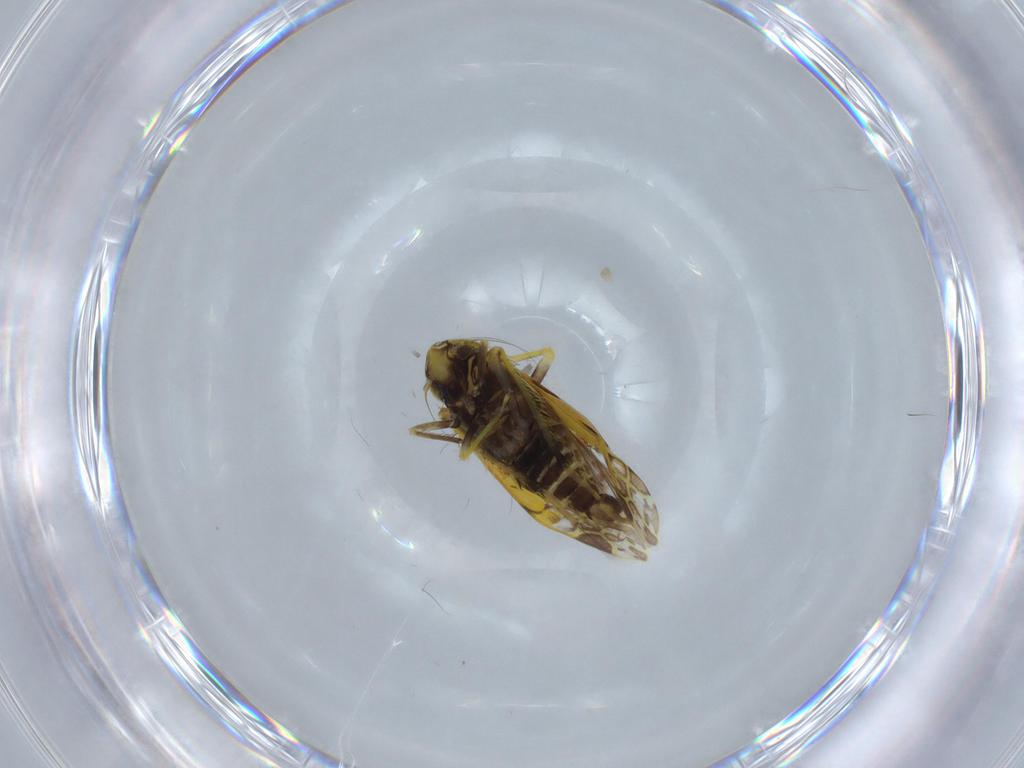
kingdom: Animalia
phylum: Arthropoda
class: Insecta
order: Hemiptera
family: Cicadellidae
